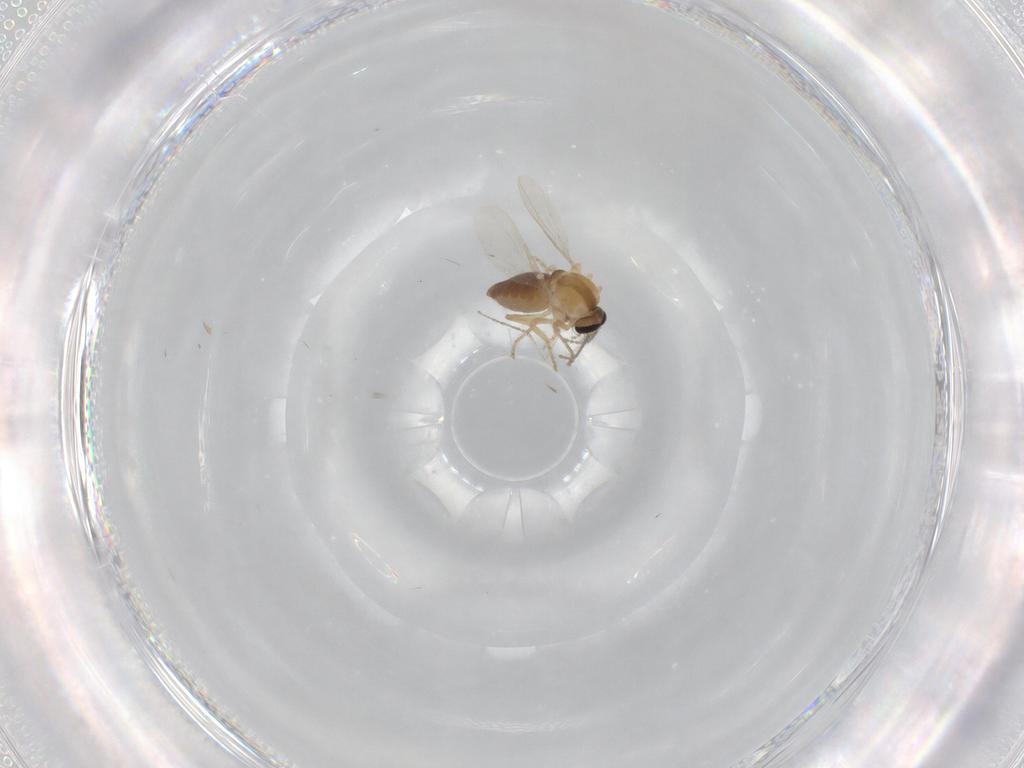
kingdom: Animalia
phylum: Arthropoda
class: Insecta
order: Diptera
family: Ceratopogonidae
